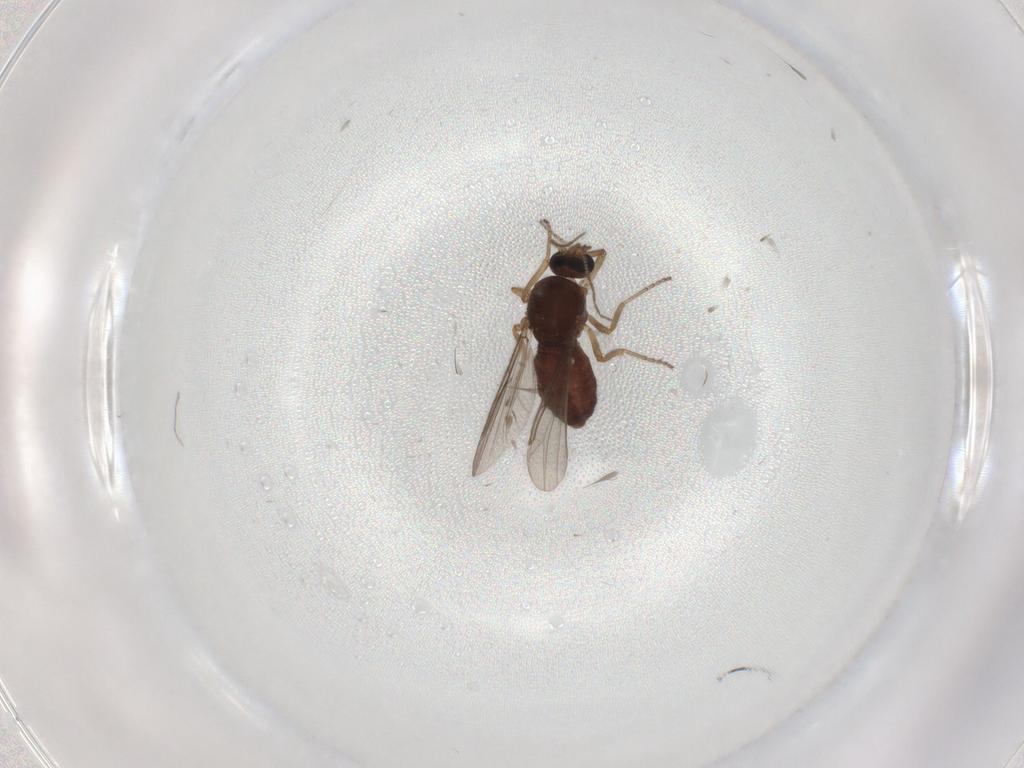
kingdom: Animalia
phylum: Arthropoda
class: Insecta
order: Diptera
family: Ceratopogonidae
